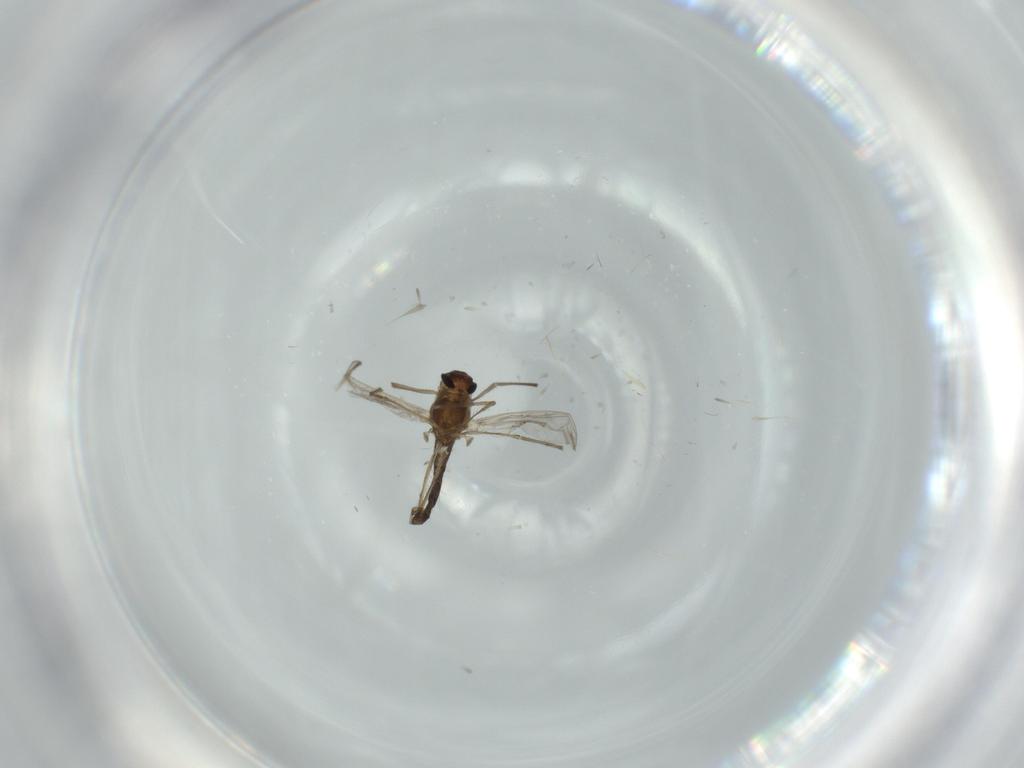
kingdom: Animalia
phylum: Arthropoda
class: Insecta
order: Diptera
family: Chironomidae
